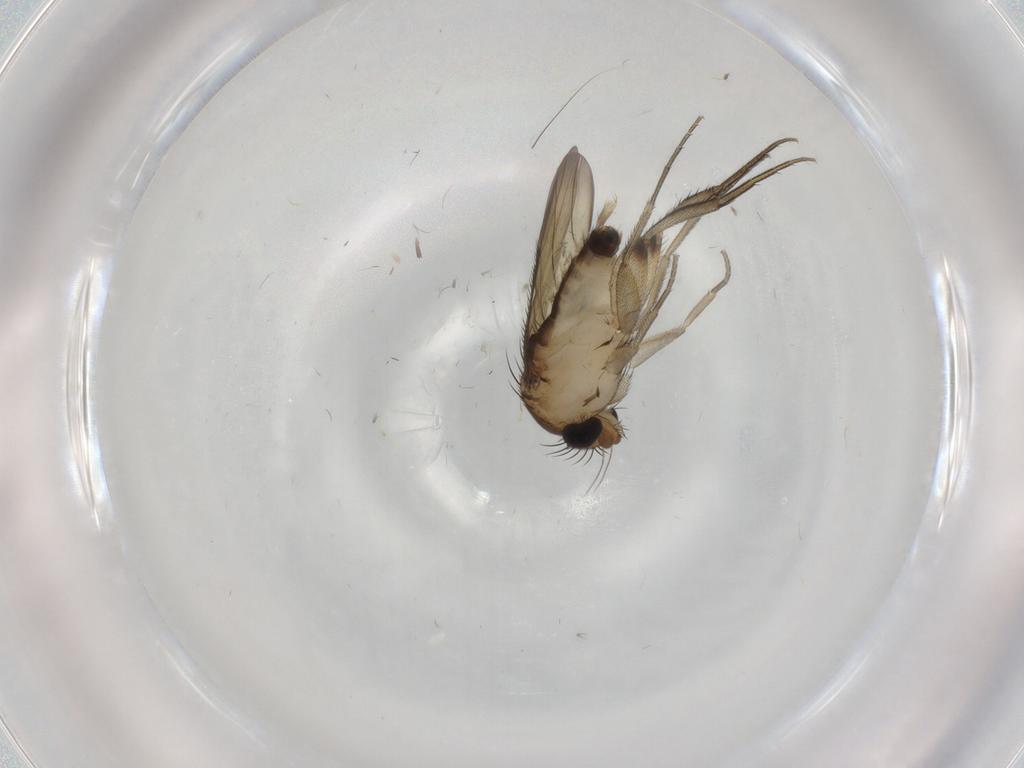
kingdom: Animalia
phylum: Arthropoda
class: Insecta
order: Diptera
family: Phoridae
